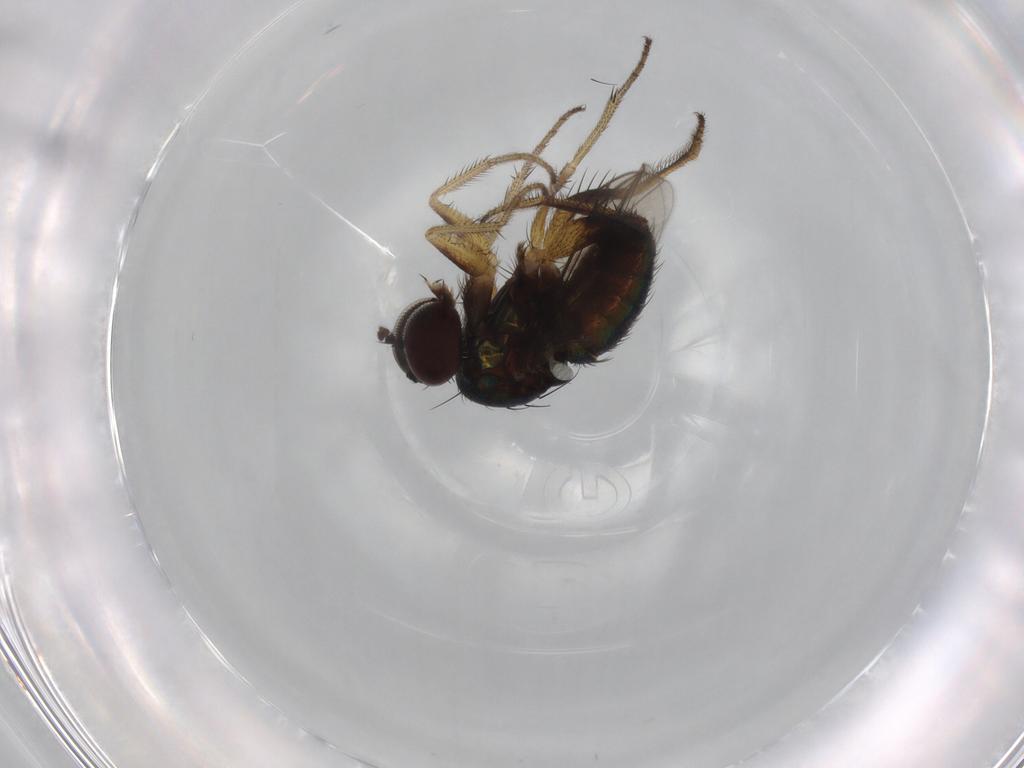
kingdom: Animalia
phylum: Arthropoda
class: Insecta
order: Diptera
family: Dolichopodidae
